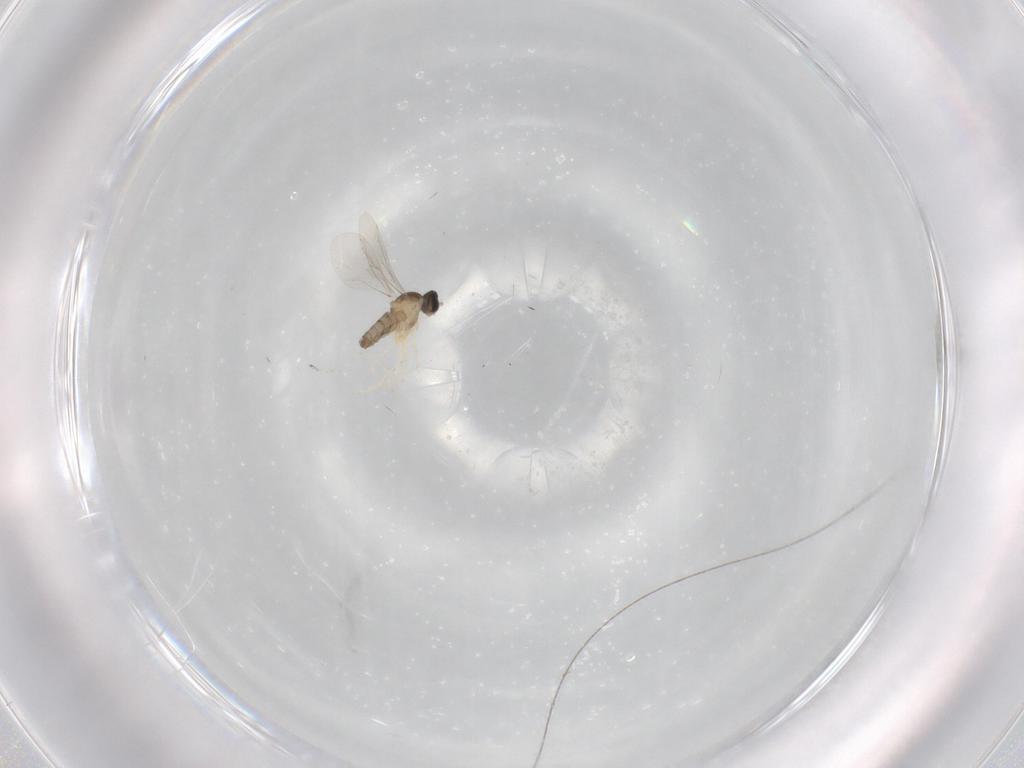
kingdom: Animalia
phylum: Arthropoda
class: Insecta
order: Diptera
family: Cecidomyiidae
